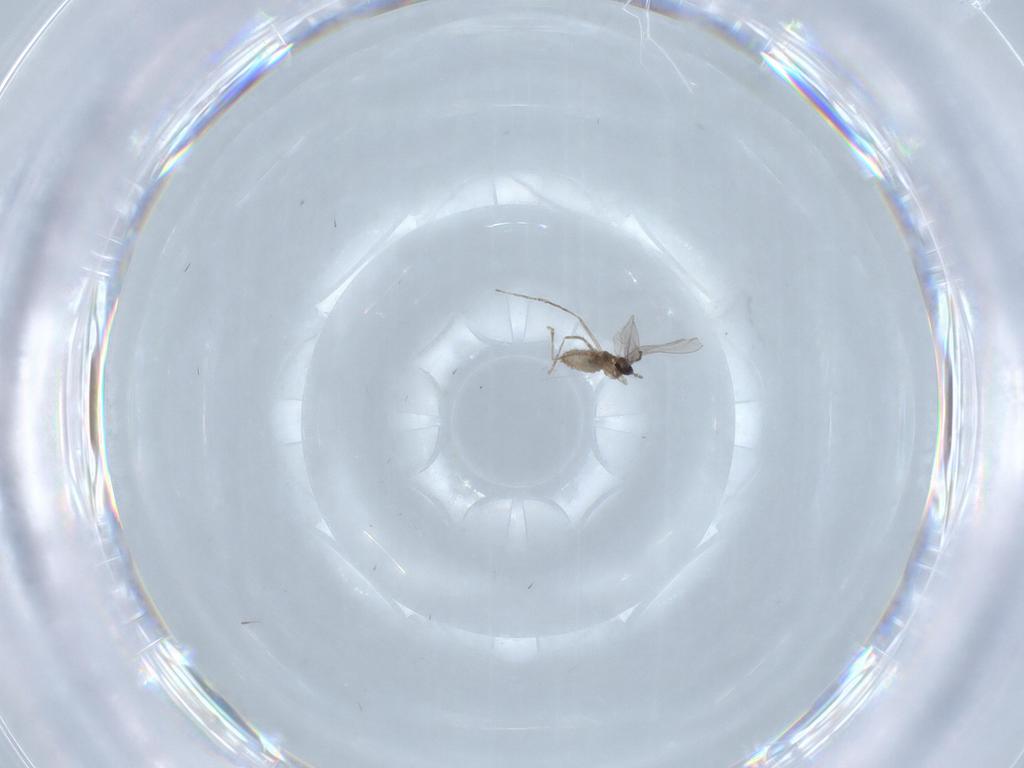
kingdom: Animalia
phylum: Arthropoda
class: Insecta
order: Diptera
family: Cecidomyiidae
